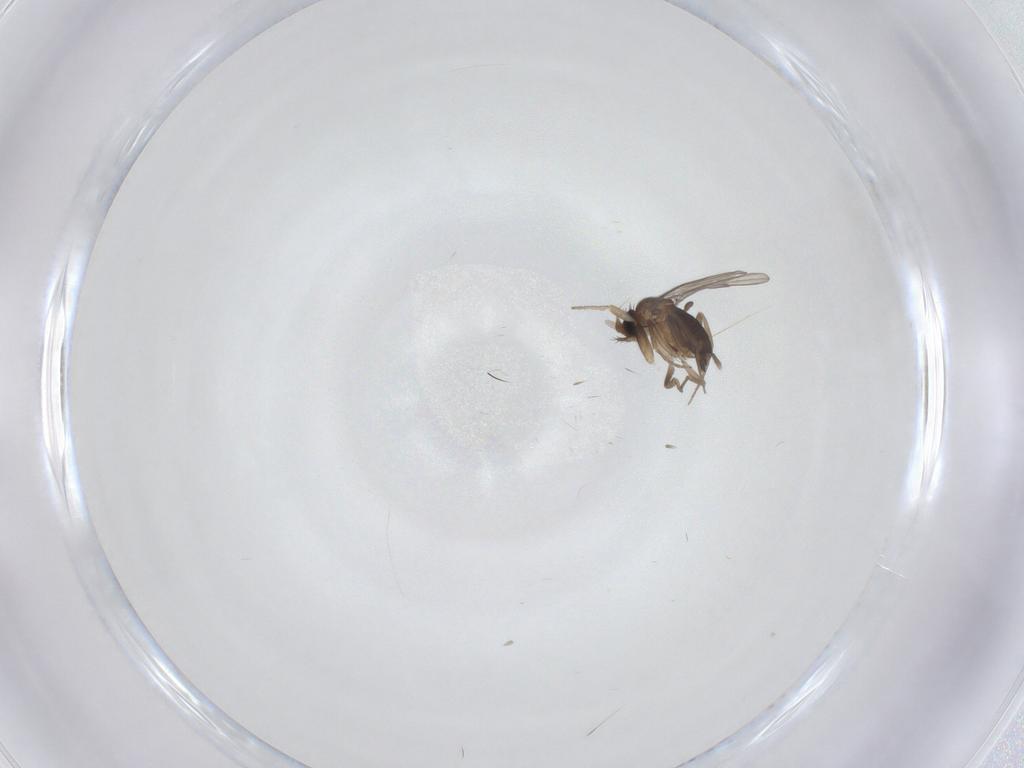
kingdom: Animalia
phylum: Arthropoda
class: Insecta
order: Diptera
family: Phoridae
